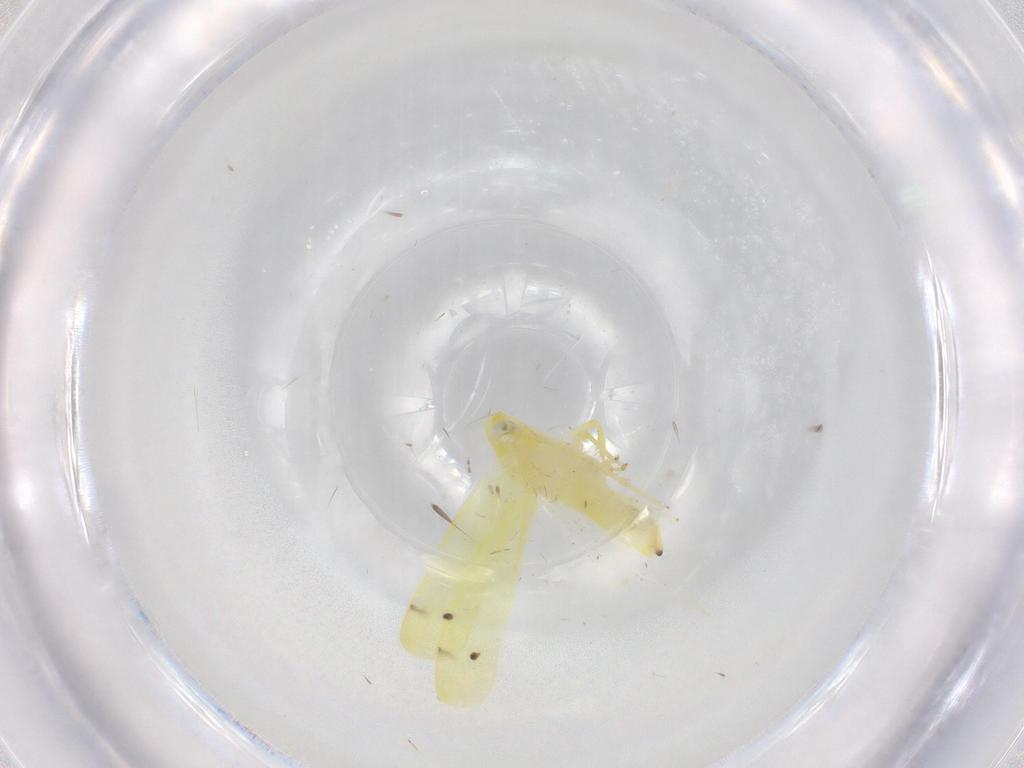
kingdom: Animalia
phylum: Arthropoda
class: Insecta
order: Hemiptera
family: Cicadellidae
